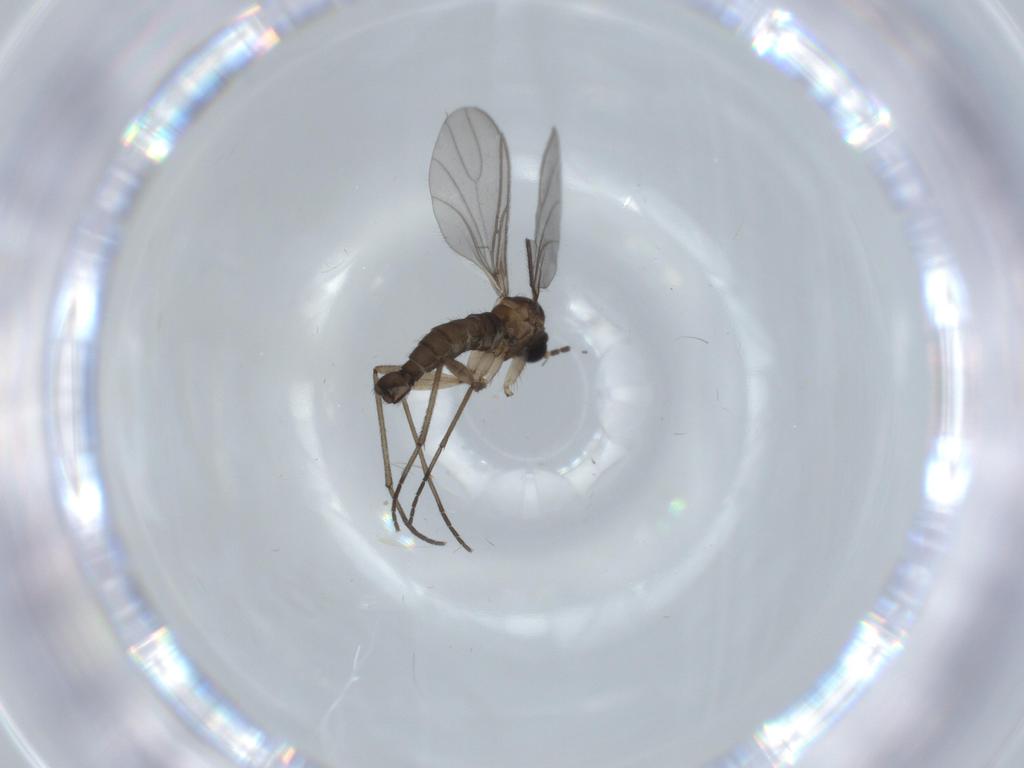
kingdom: Animalia
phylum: Arthropoda
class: Insecta
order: Diptera
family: Sciaridae
